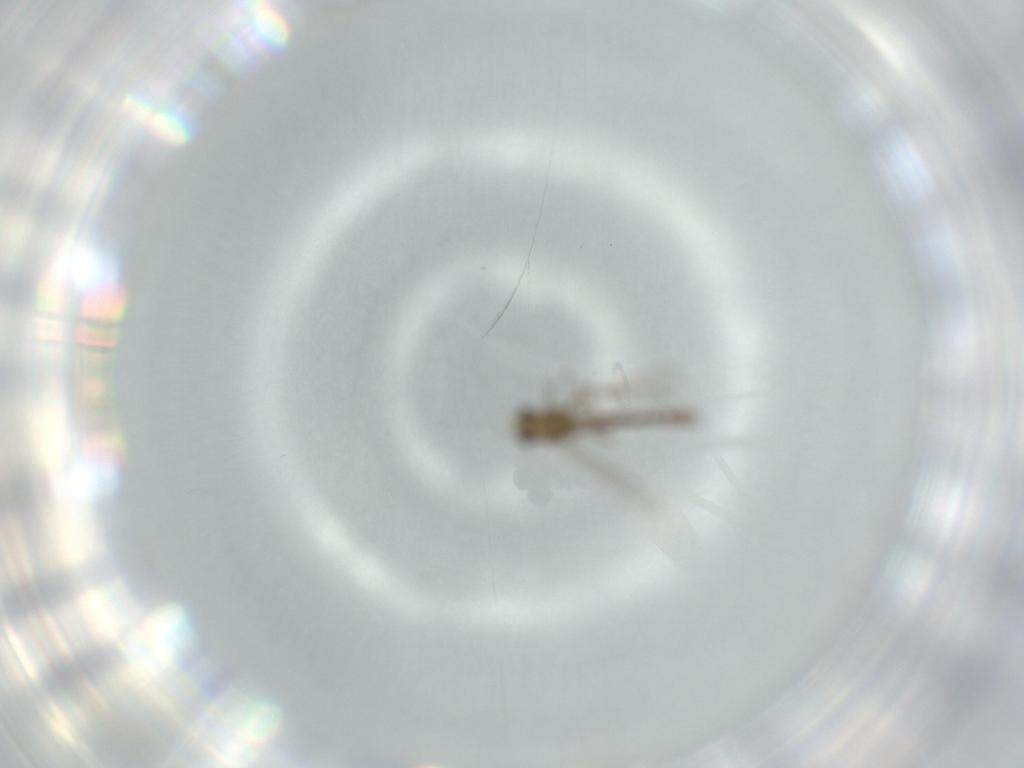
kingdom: Animalia
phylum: Arthropoda
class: Insecta
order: Diptera
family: Chironomidae
